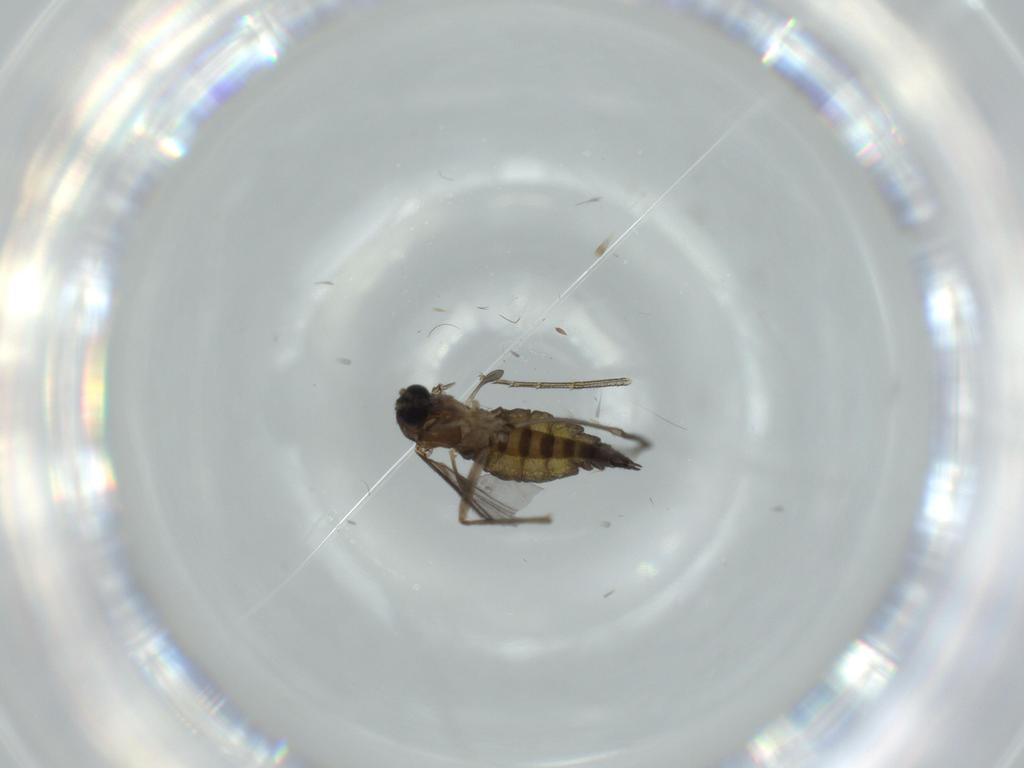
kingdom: Animalia
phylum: Arthropoda
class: Insecta
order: Diptera
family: Sciaridae
